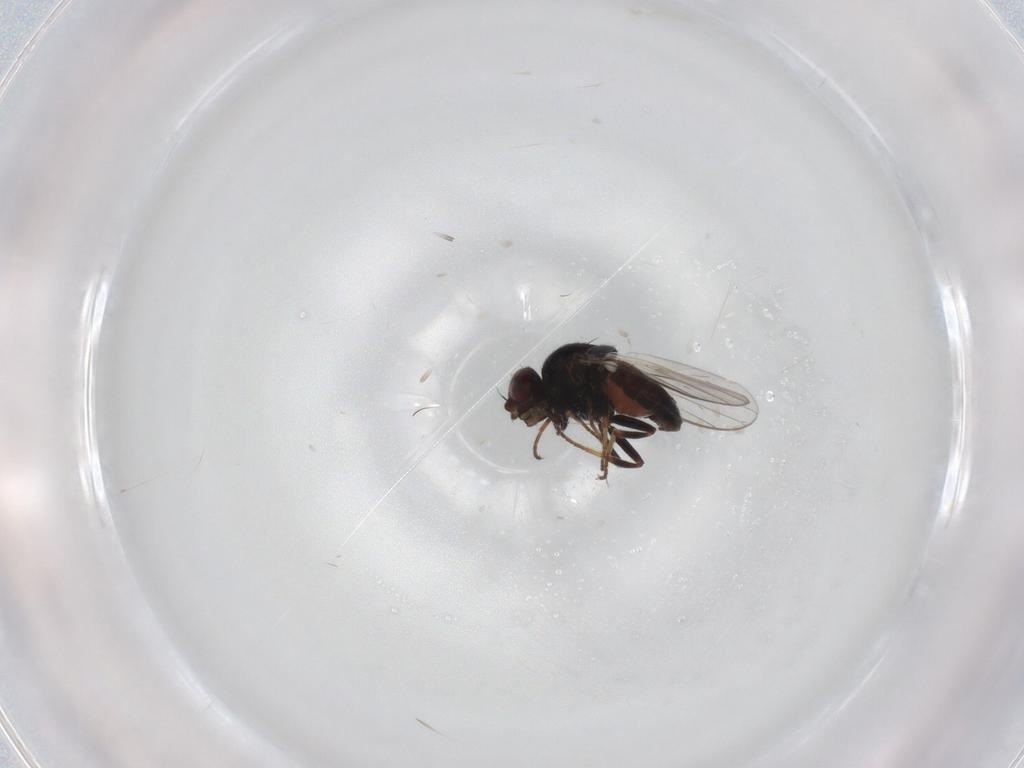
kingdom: Animalia
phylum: Arthropoda
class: Insecta
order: Diptera
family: Chloropidae
